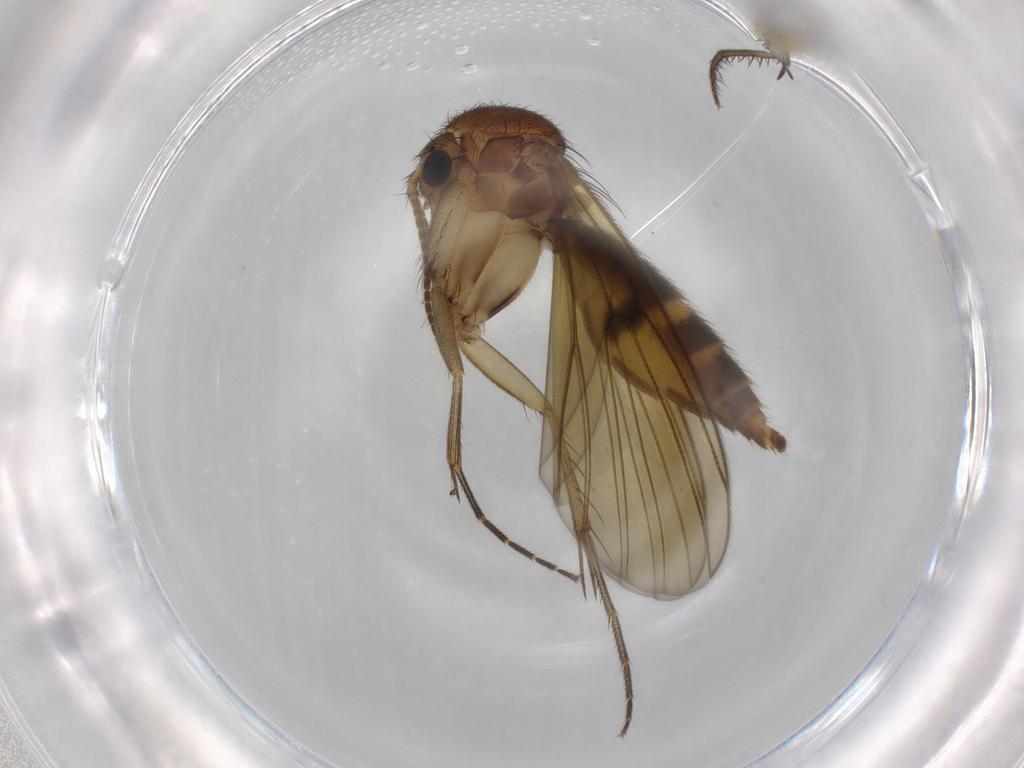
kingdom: Animalia
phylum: Arthropoda
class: Insecta
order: Diptera
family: Mycetophilidae
